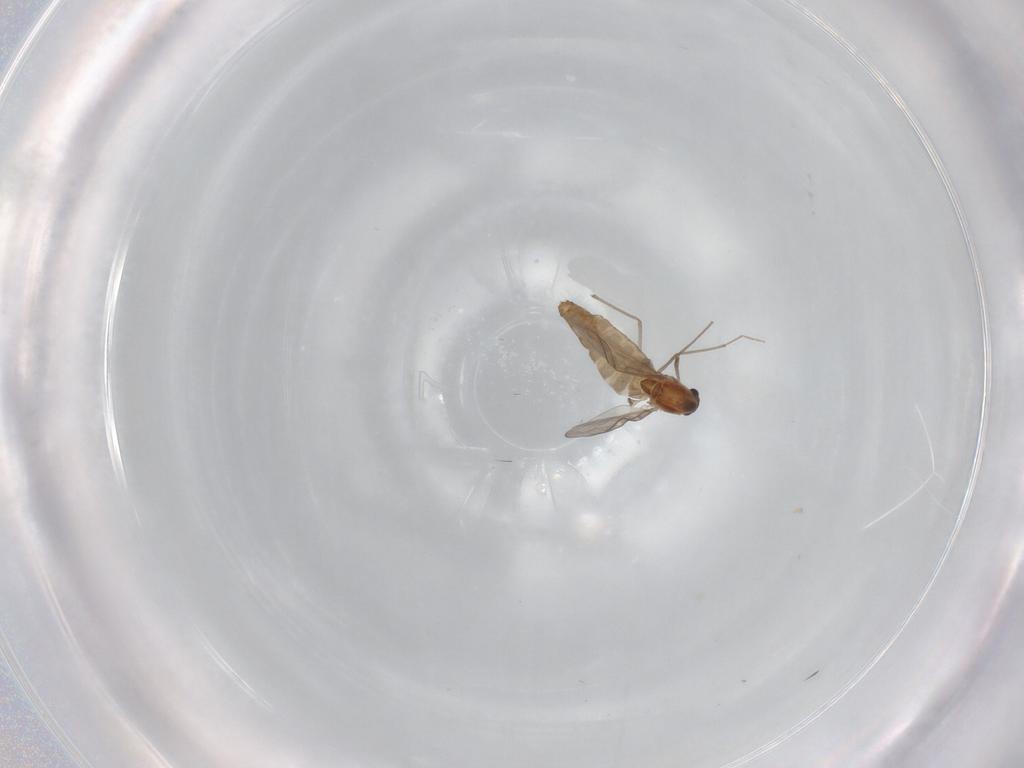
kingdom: Animalia
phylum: Arthropoda
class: Insecta
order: Diptera
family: Chironomidae
